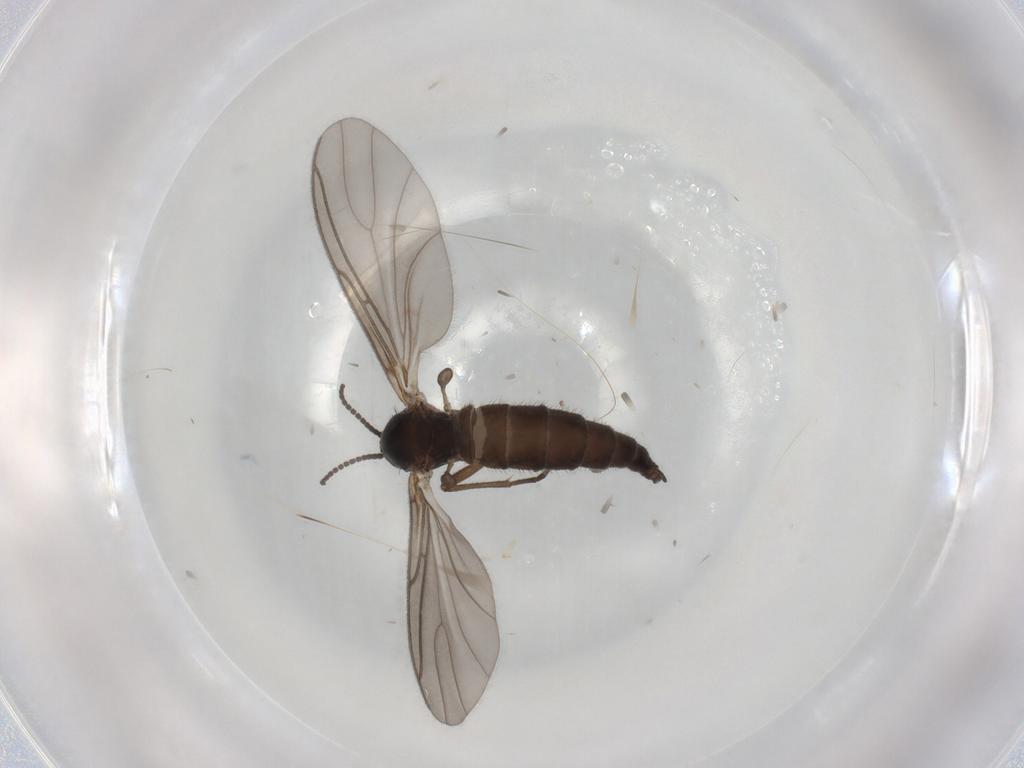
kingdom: Animalia
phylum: Arthropoda
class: Insecta
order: Diptera
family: Sciaridae
